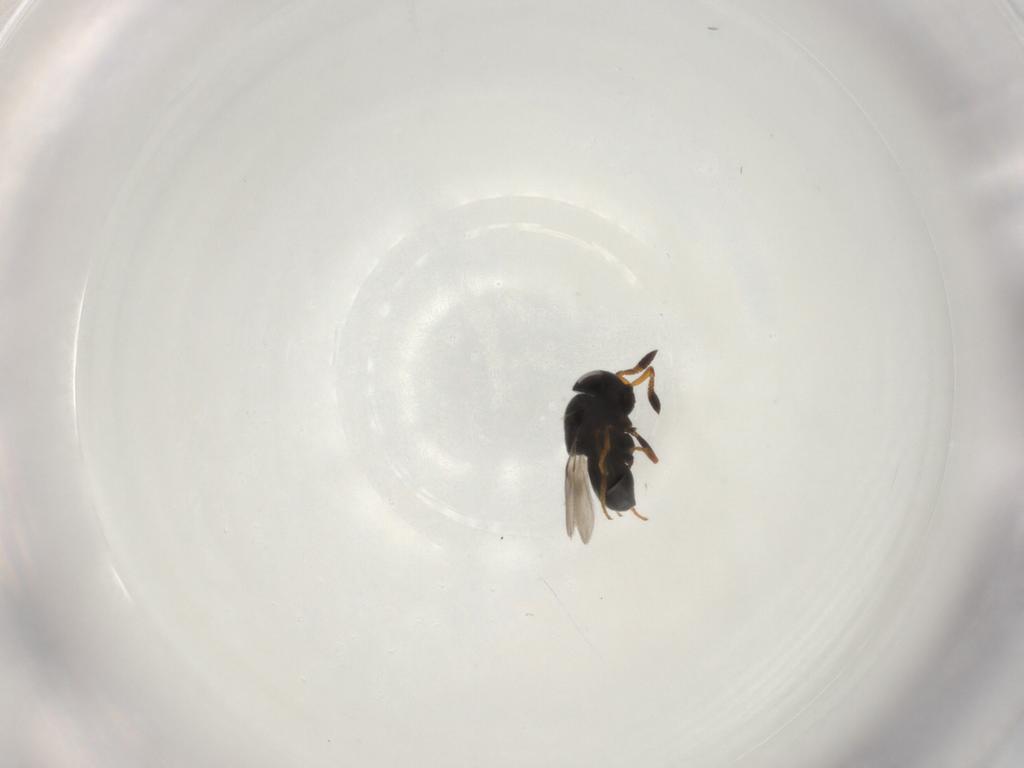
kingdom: Animalia
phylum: Arthropoda
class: Insecta
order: Hymenoptera
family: Scelionidae
